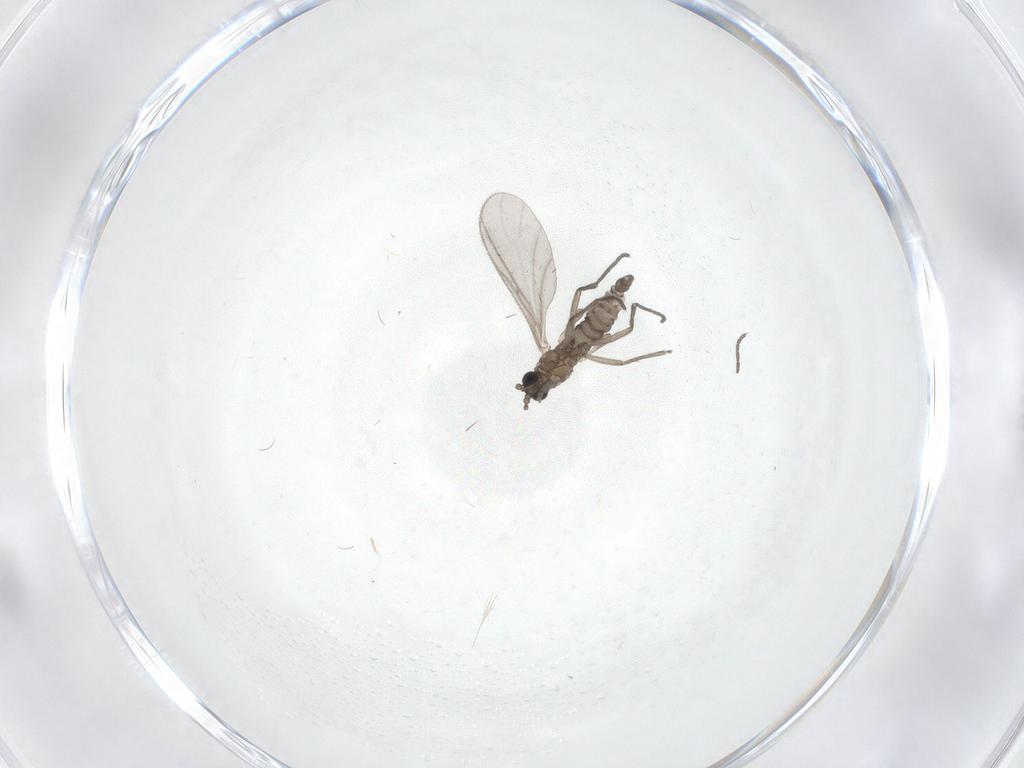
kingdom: Animalia
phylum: Arthropoda
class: Insecta
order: Diptera
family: Sciaridae
